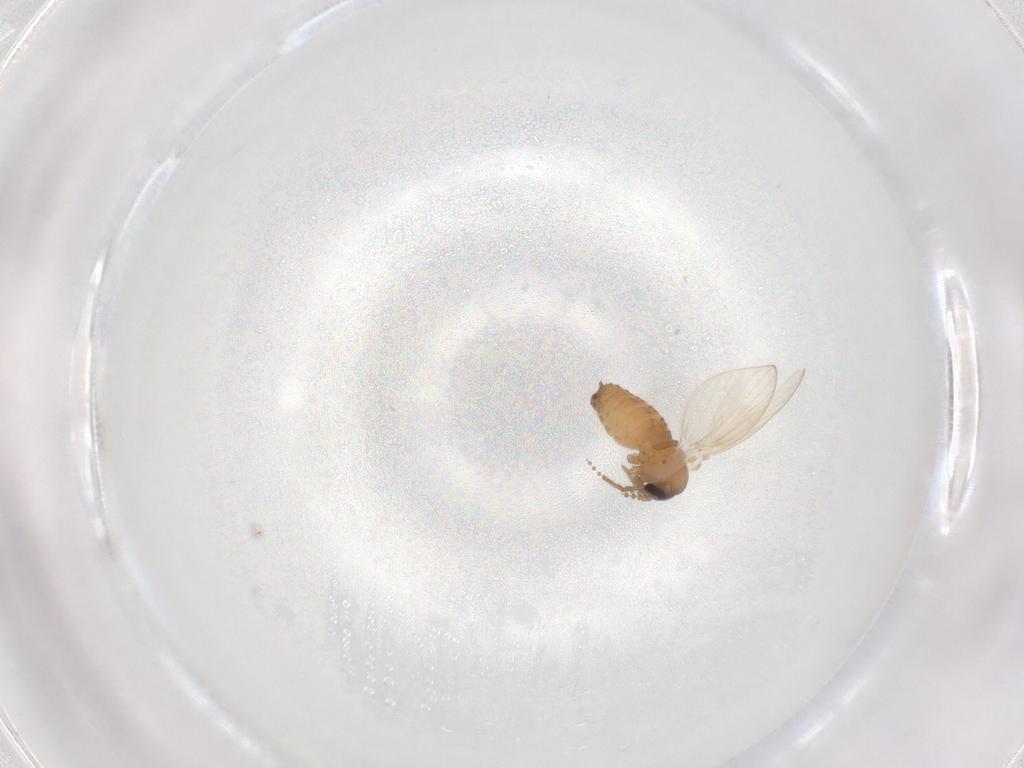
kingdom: Animalia
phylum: Arthropoda
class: Insecta
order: Diptera
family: Psychodidae
